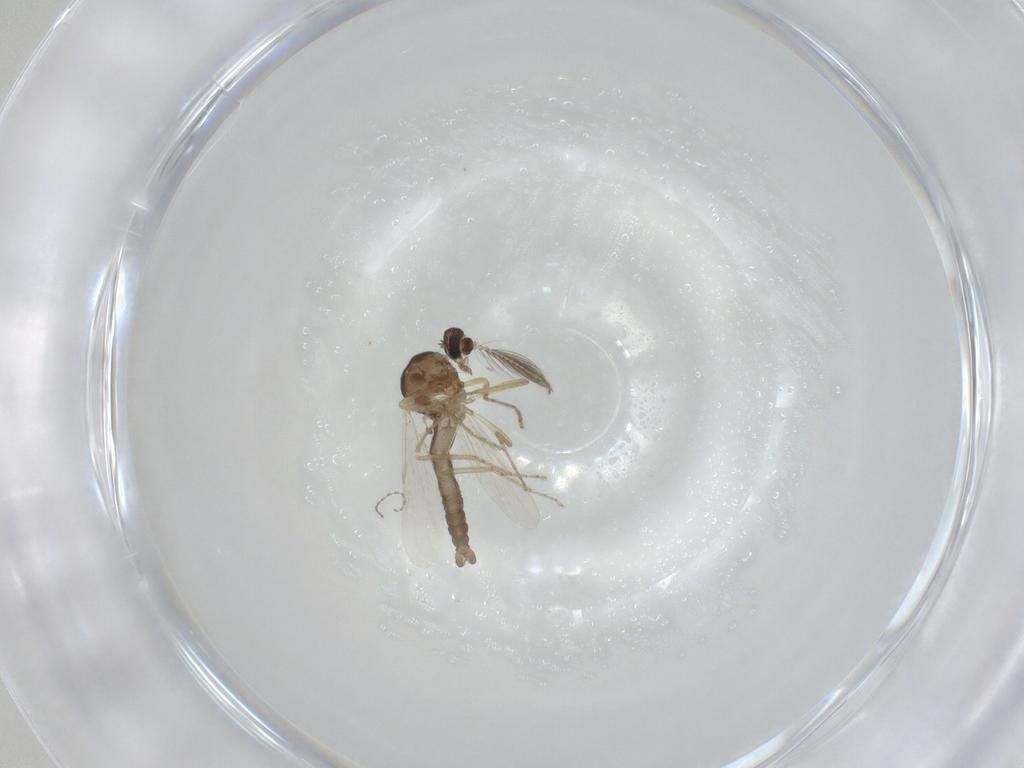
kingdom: Animalia
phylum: Arthropoda
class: Insecta
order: Diptera
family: Ceratopogonidae
